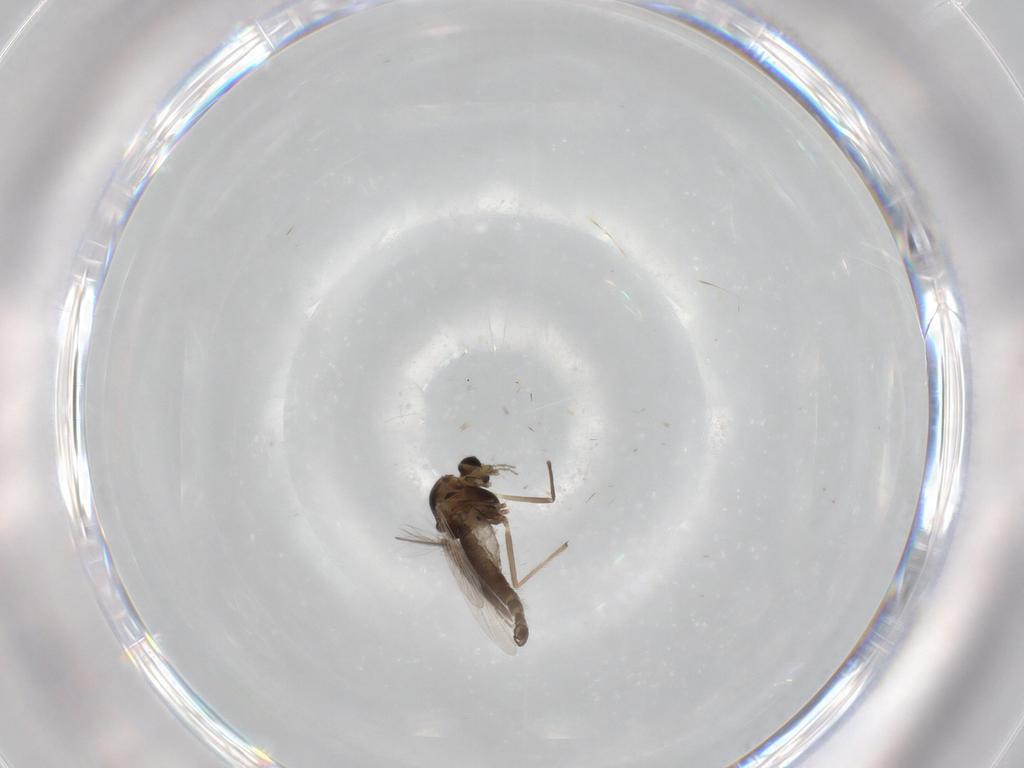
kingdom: Animalia
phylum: Arthropoda
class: Insecta
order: Diptera
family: Chironomidae
